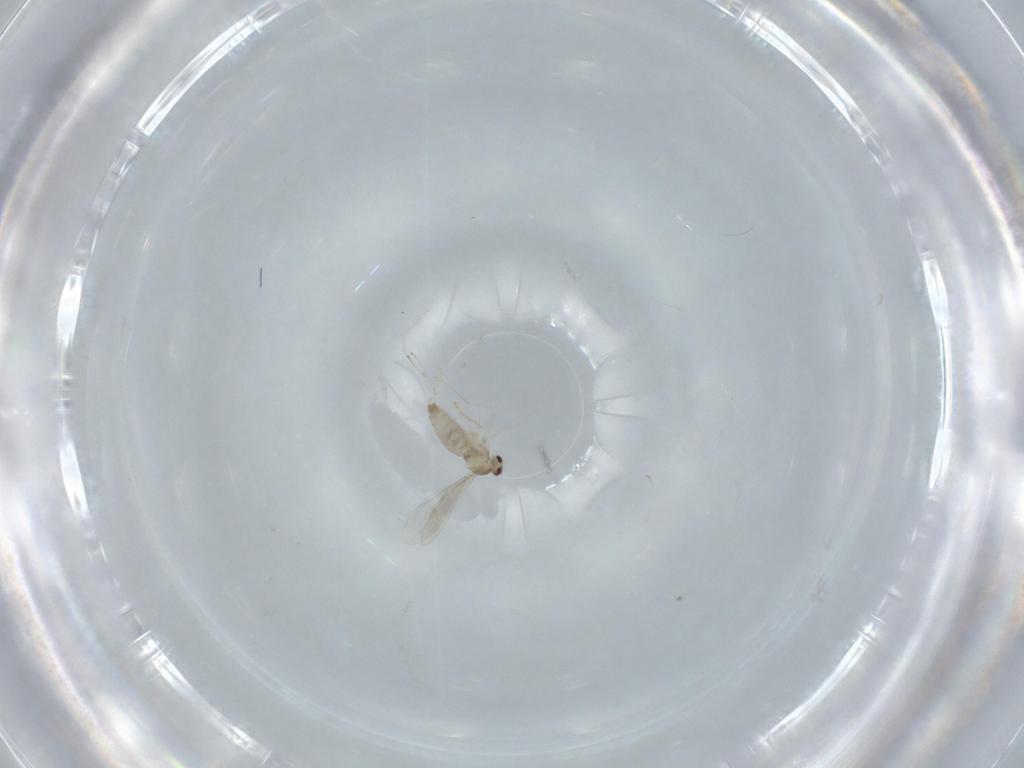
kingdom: Animalia
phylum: Arthropoda
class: Insecta
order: Diptera
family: Cecidomyiidae
